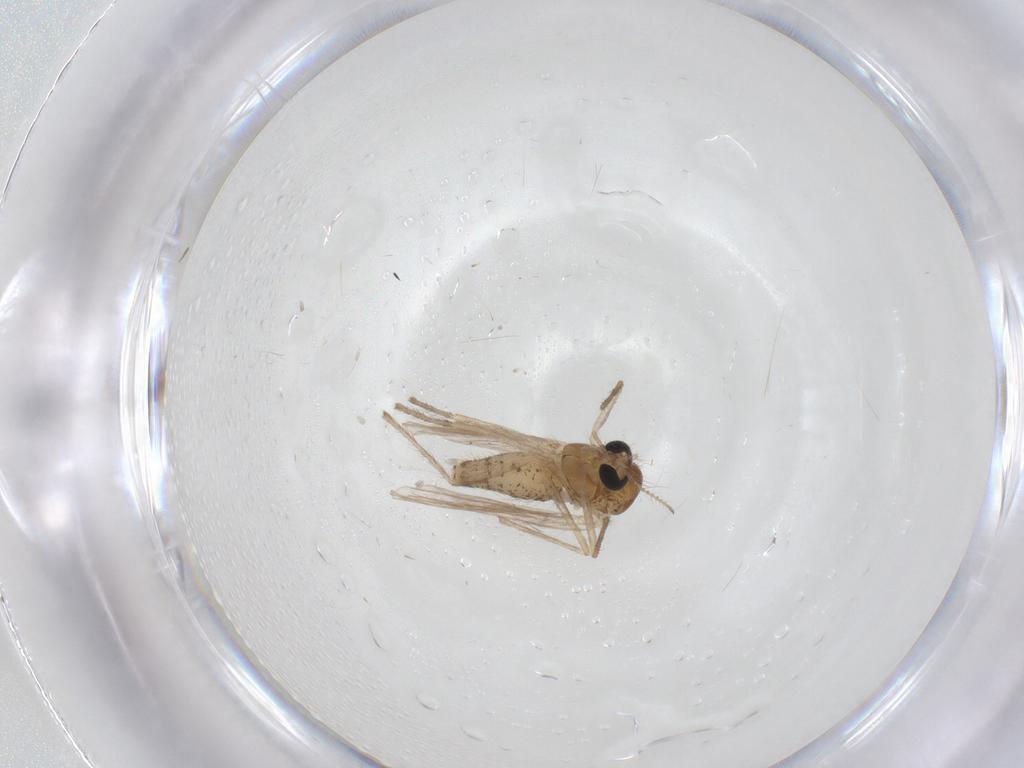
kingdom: Animalia
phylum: Arthropoda
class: Insecta
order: Diptera
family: Chironomidae
